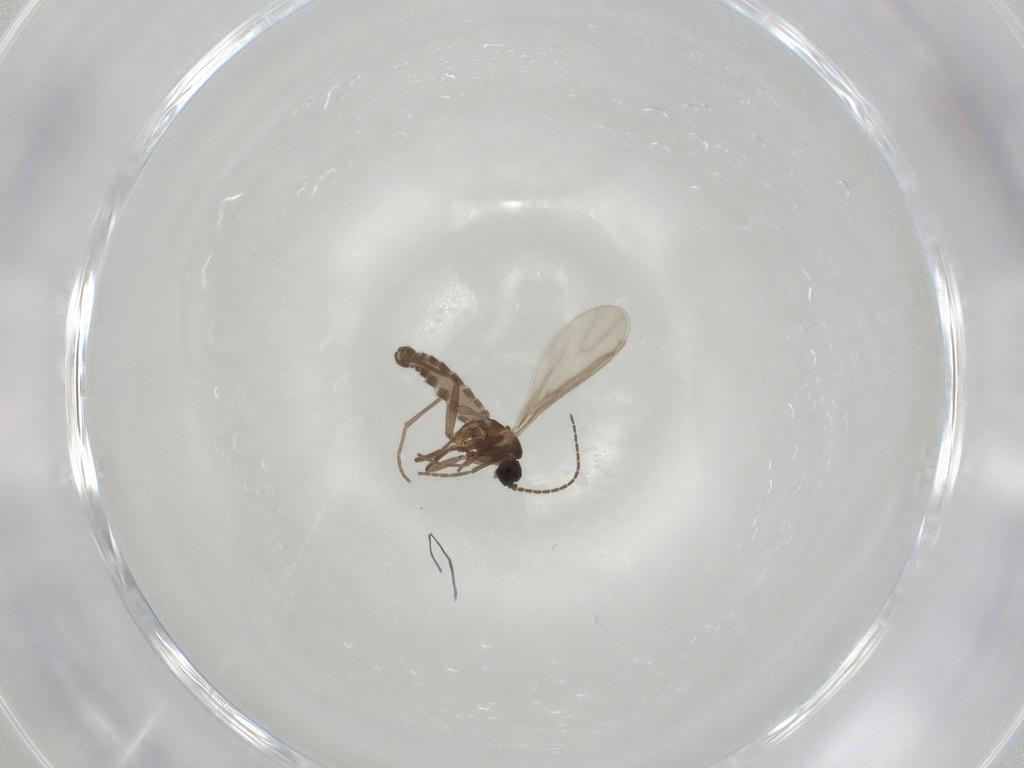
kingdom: Animalia
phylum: Arthropoda
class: Insecta
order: Diptera
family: Sciaridae
